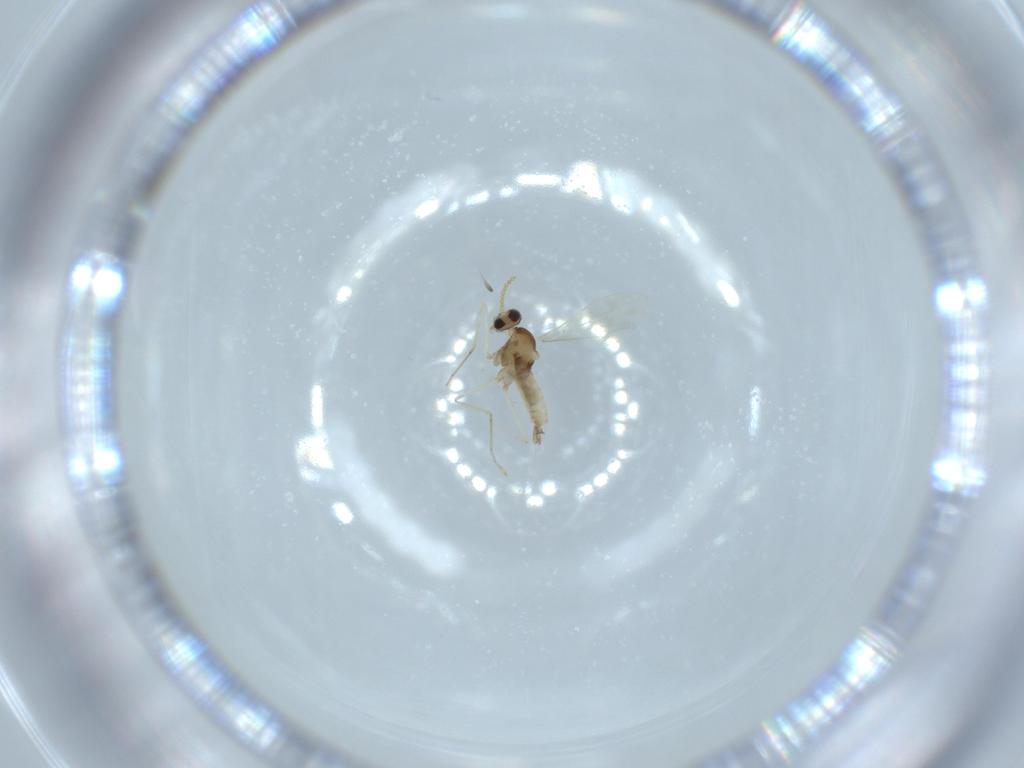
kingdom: Animalia
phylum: Arthropoda
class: Insecta
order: Diptera
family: Cecidomyiidae
